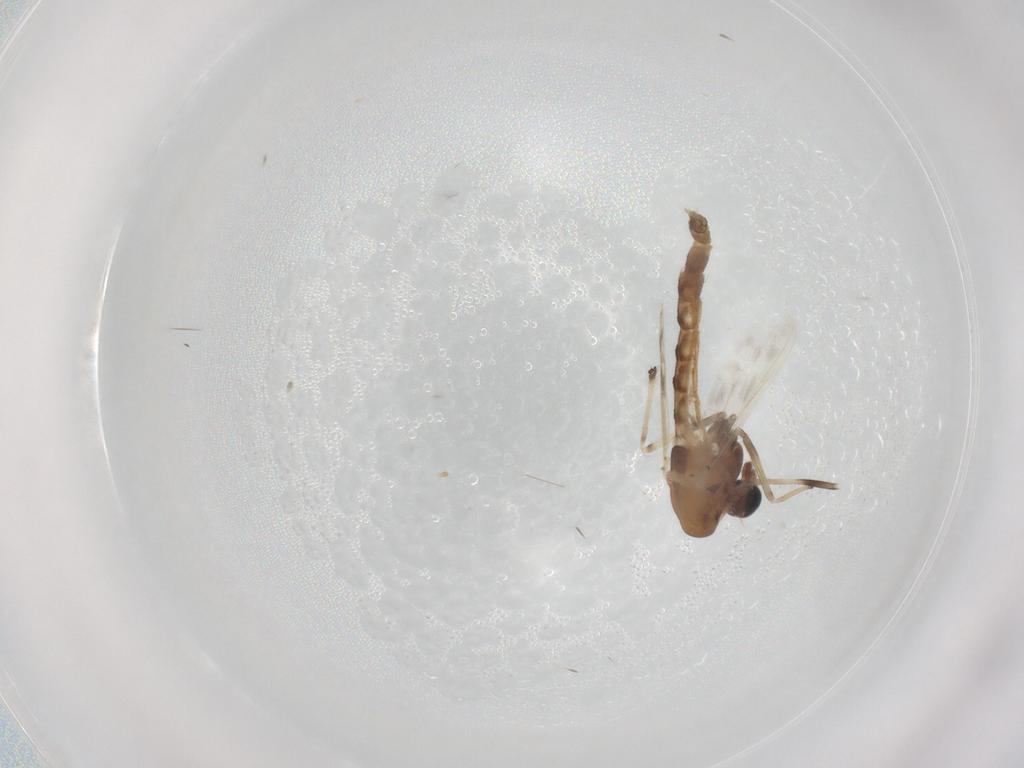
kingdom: Animalia
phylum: Arthropoda
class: Insecta
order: Diptera
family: Chironomidae
